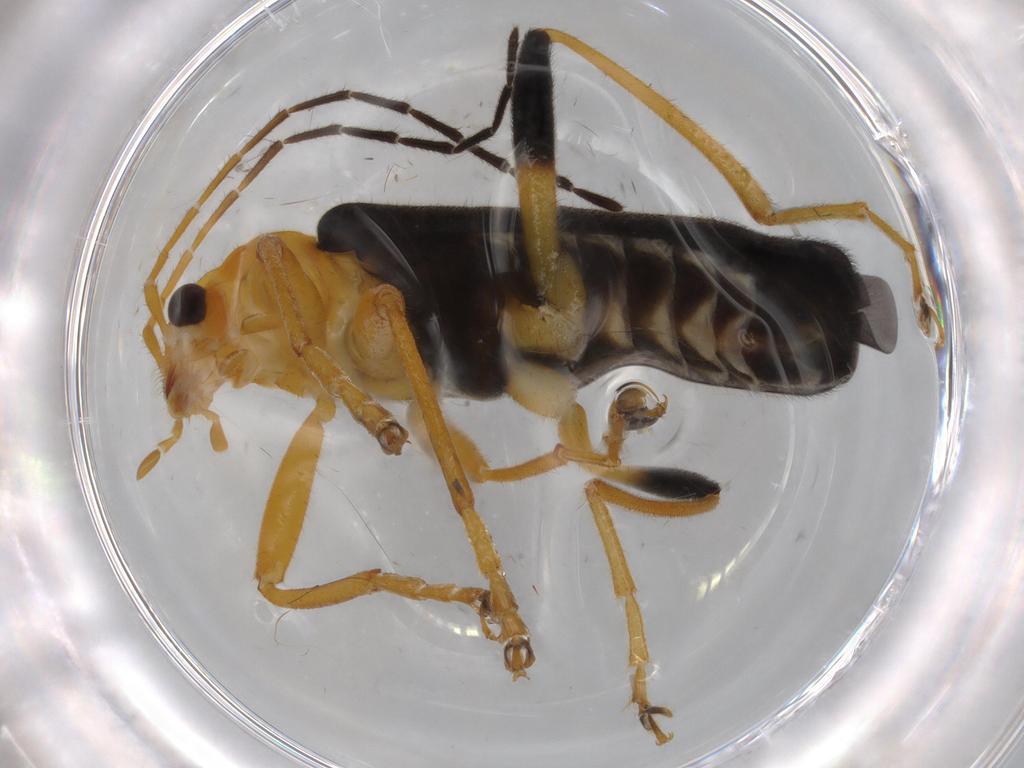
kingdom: Animalia
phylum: Arthropoda
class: Insecta
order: Coleoptera
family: Cantharidae
